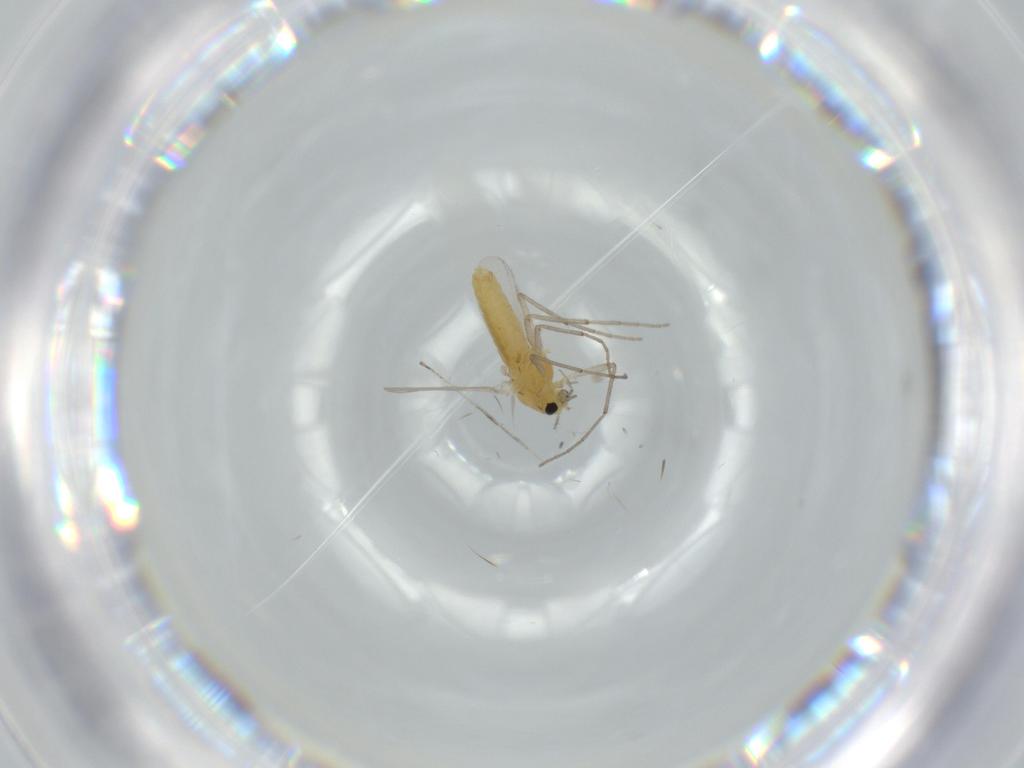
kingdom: Animalia
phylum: Arthropoda
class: Insecta
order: Diptera
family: Chironomidae
